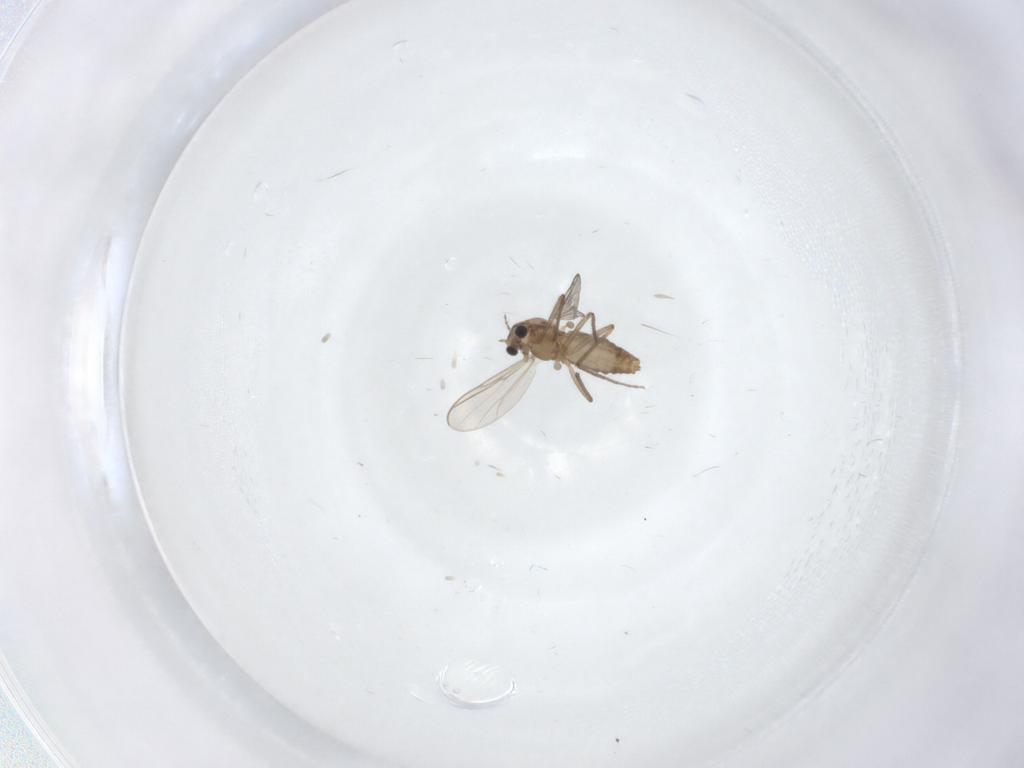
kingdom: Animalia
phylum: Arthropoda
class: Insecta
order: Diptera
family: Chironomidae
